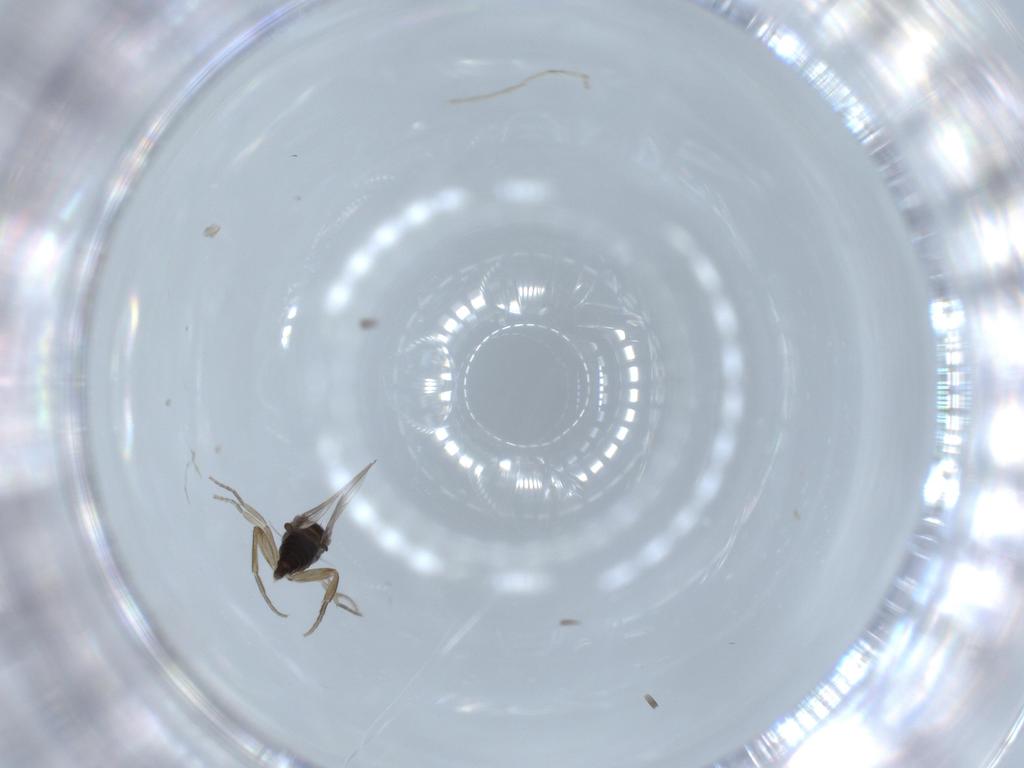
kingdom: Animalia
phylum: Arthropoda
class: Insecta
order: Diptera
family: Phoridae
